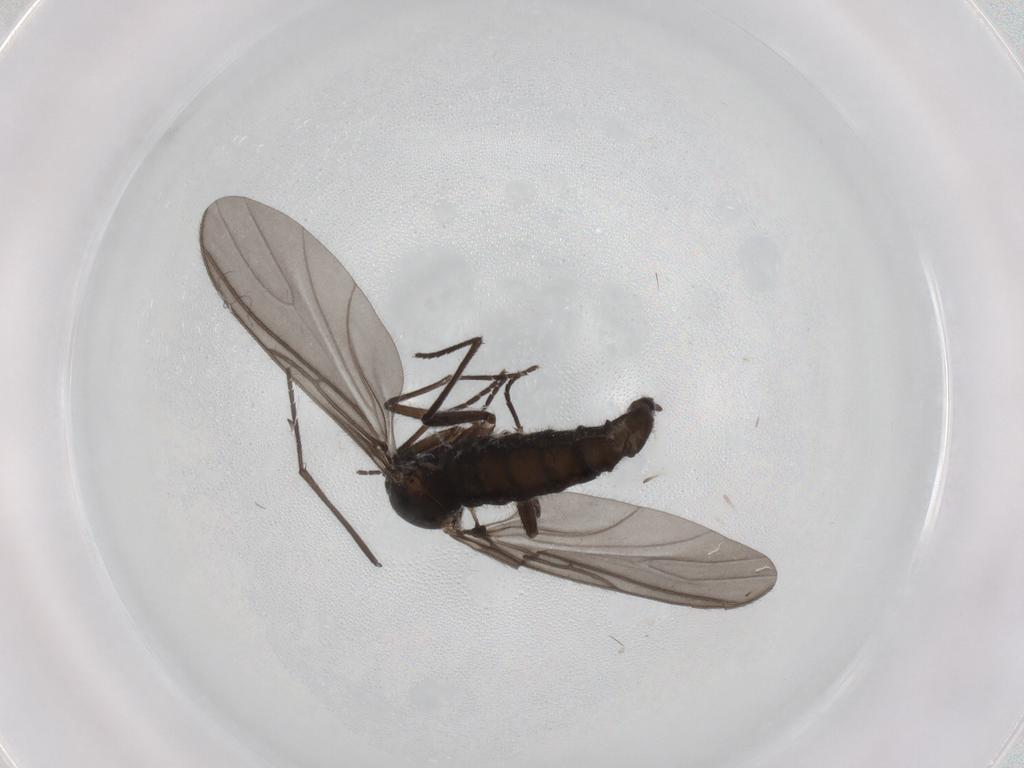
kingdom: Animalia
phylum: Arthropoda
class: Insecta
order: Diptera
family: Sciaridae
